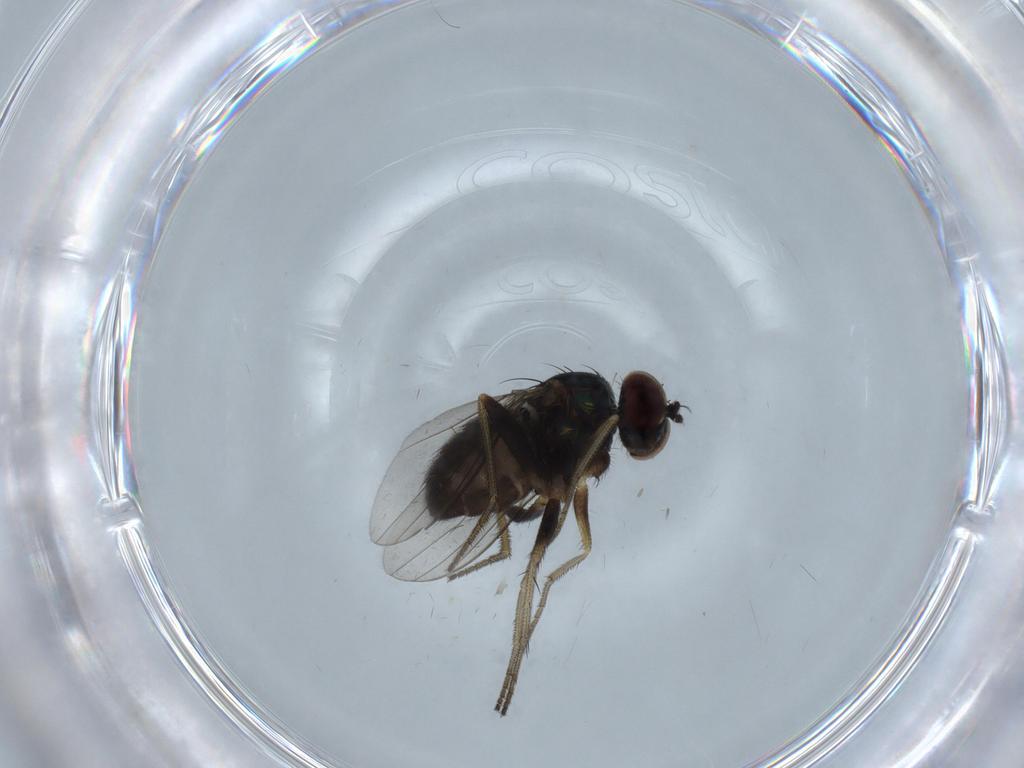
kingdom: Animalia
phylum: Arthropoda
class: Insecta
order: Diptera
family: Dolichopodidae
